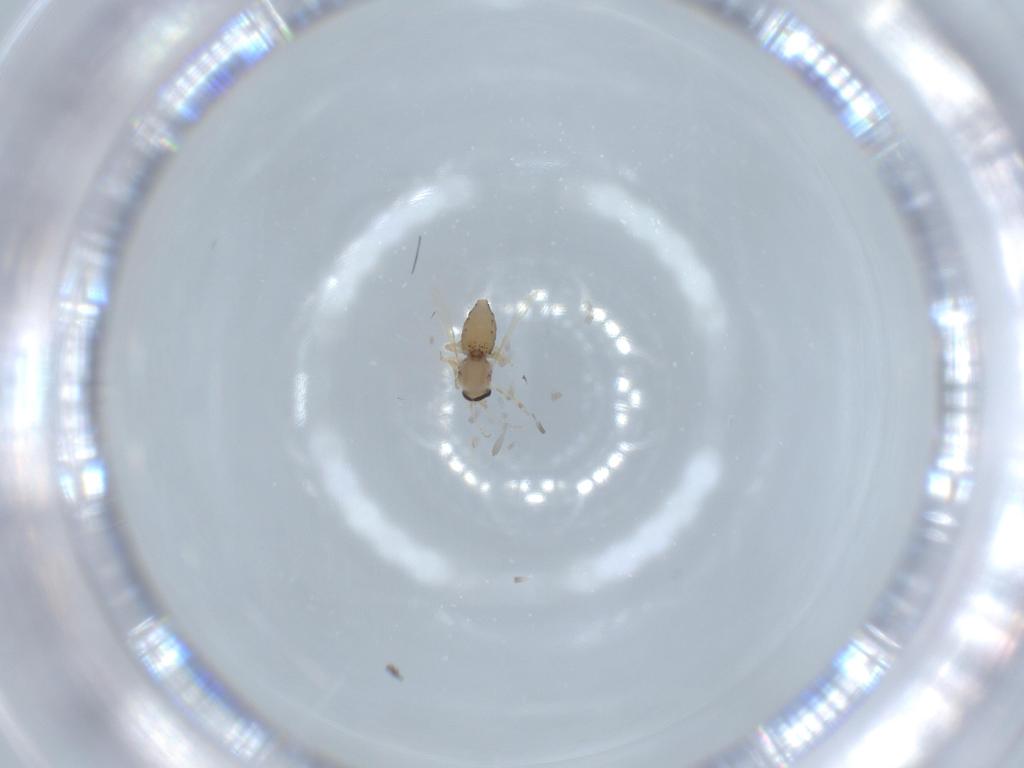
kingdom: Animalia
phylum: Arthropoda
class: Insecta
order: Diptera
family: Ceratopogonidae
